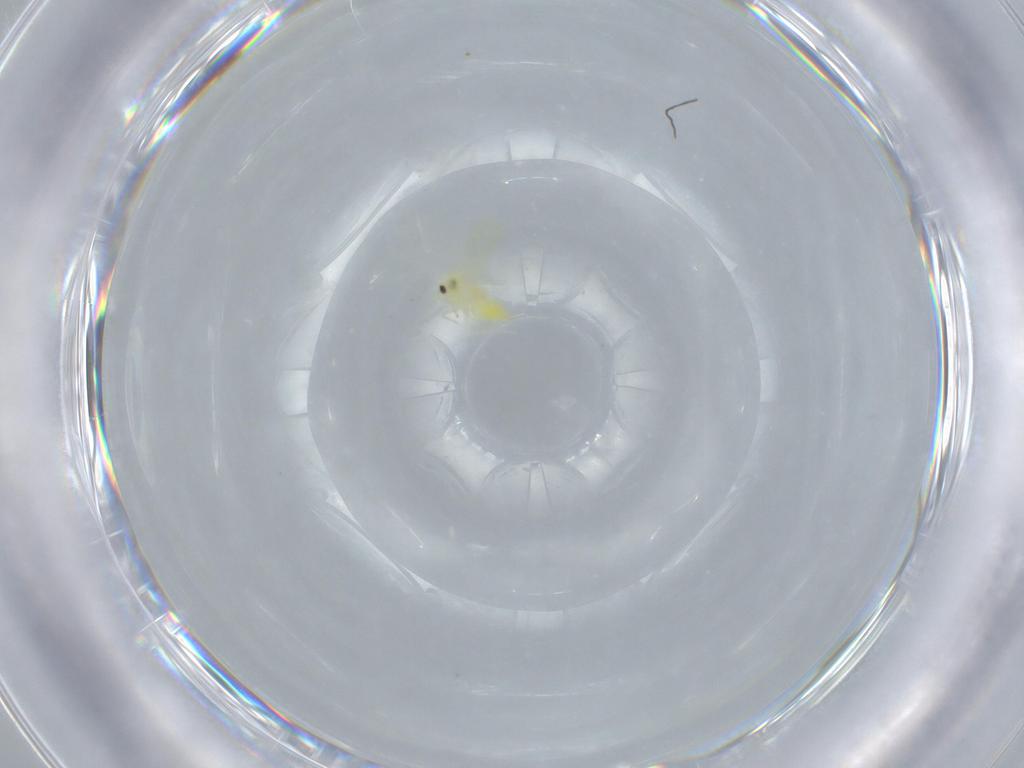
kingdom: Animalia
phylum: Arthropoda
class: Insecta
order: Hemiptera
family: Aleyrodidae
